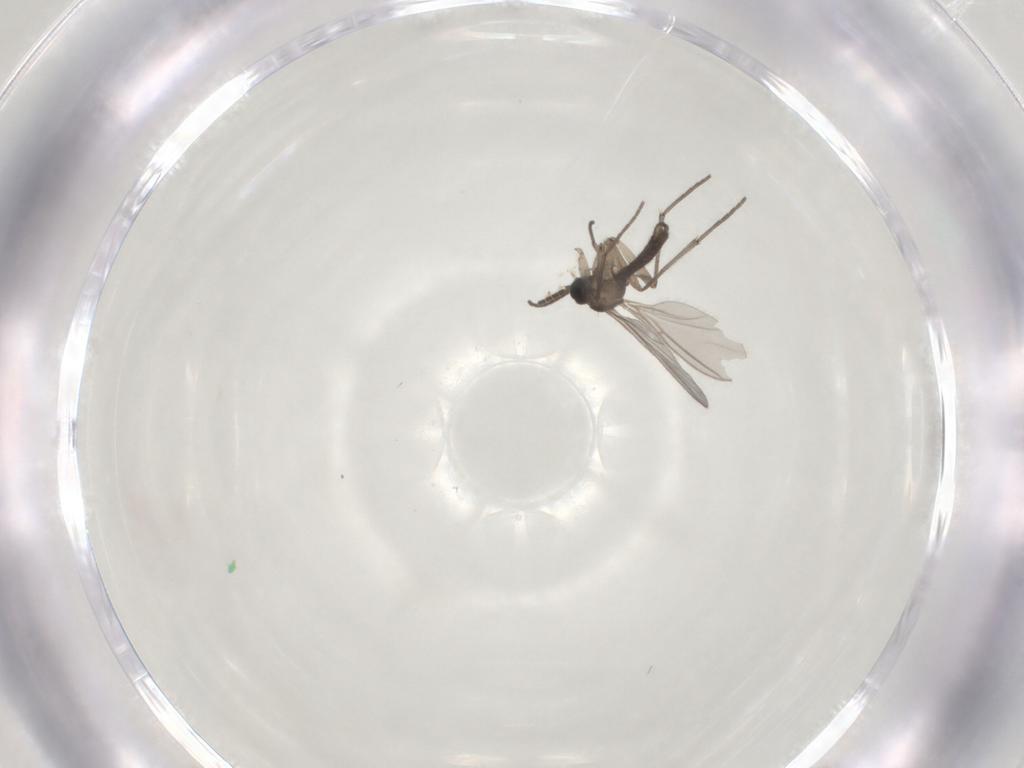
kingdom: Animalia
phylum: Arthropoda
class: Insecta
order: Diptera
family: Sciaridae
